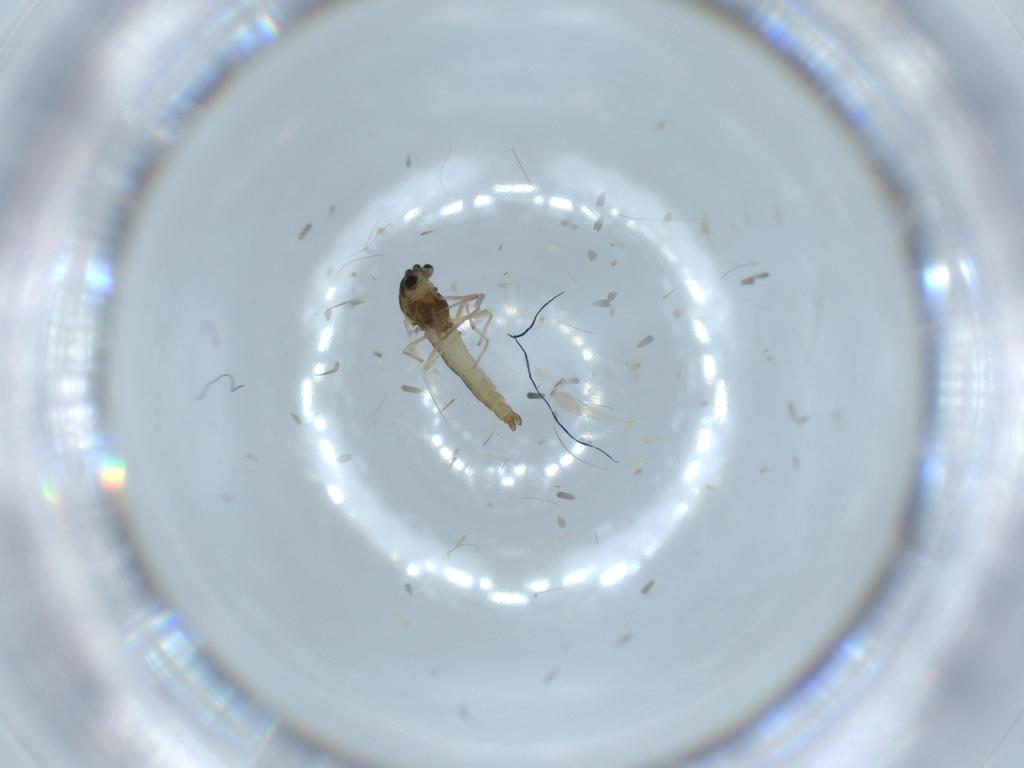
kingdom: Animalia
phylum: Arthropoda
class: Insecta
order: Diptera
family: Chironomidae
